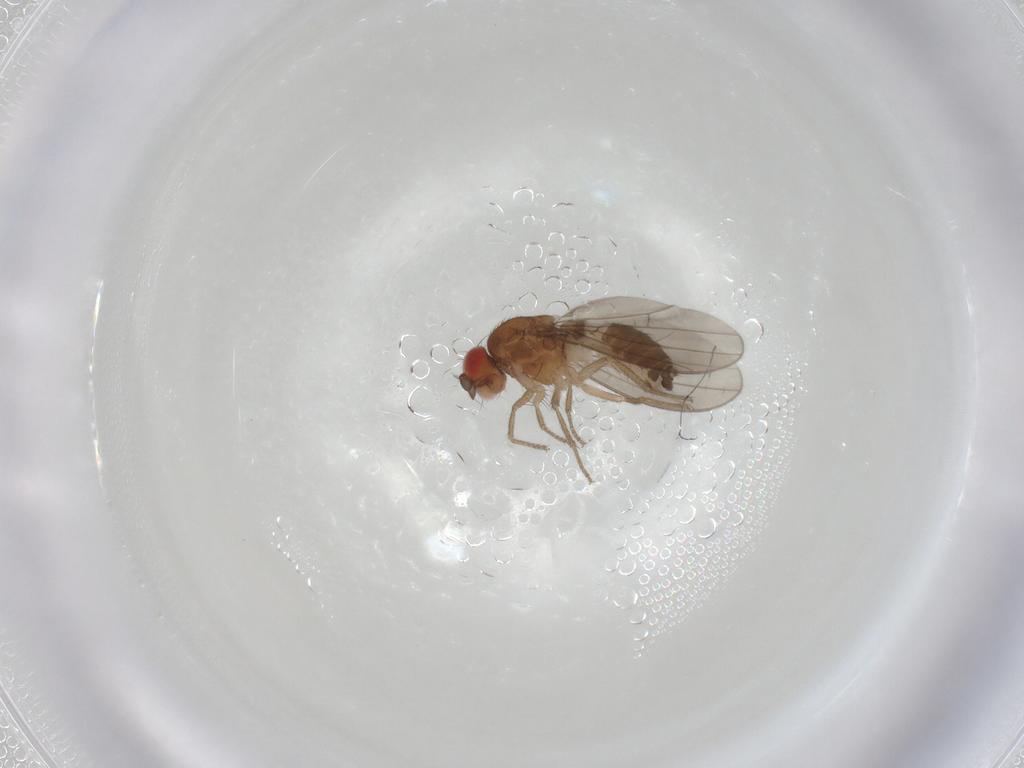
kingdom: Animalia
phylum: Arthropoda
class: Insecta
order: Diptera
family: Drosophilidae
